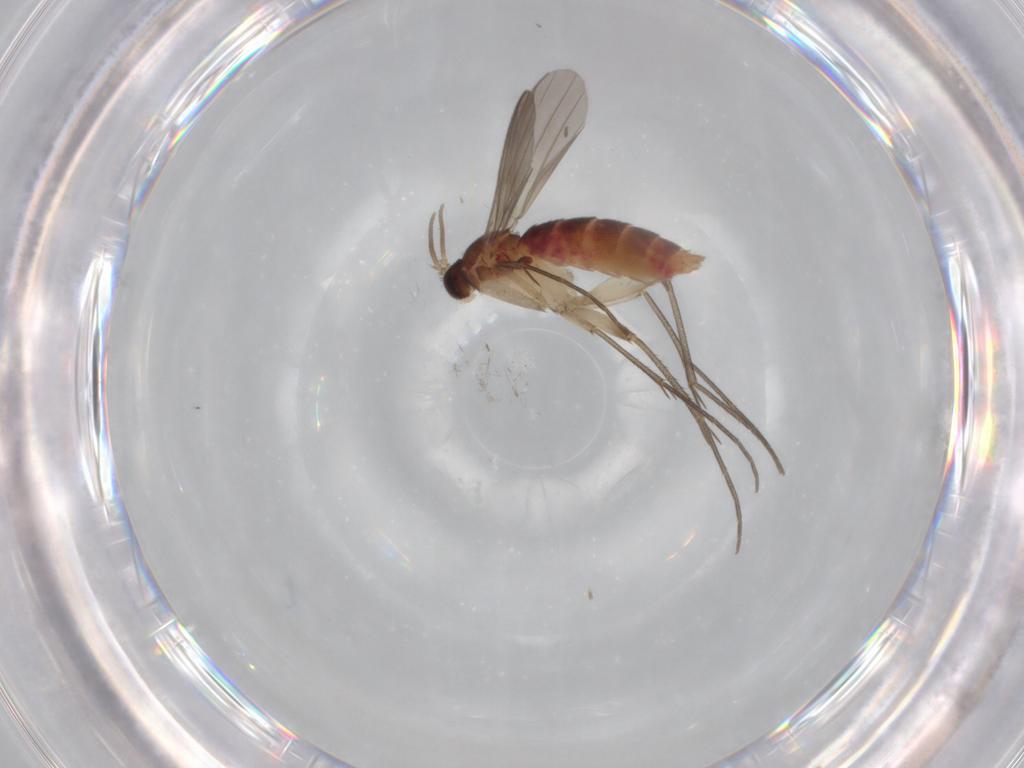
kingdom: Animalia
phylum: Arthropoda
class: Insecta
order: Diptera
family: Mycetophilidae
